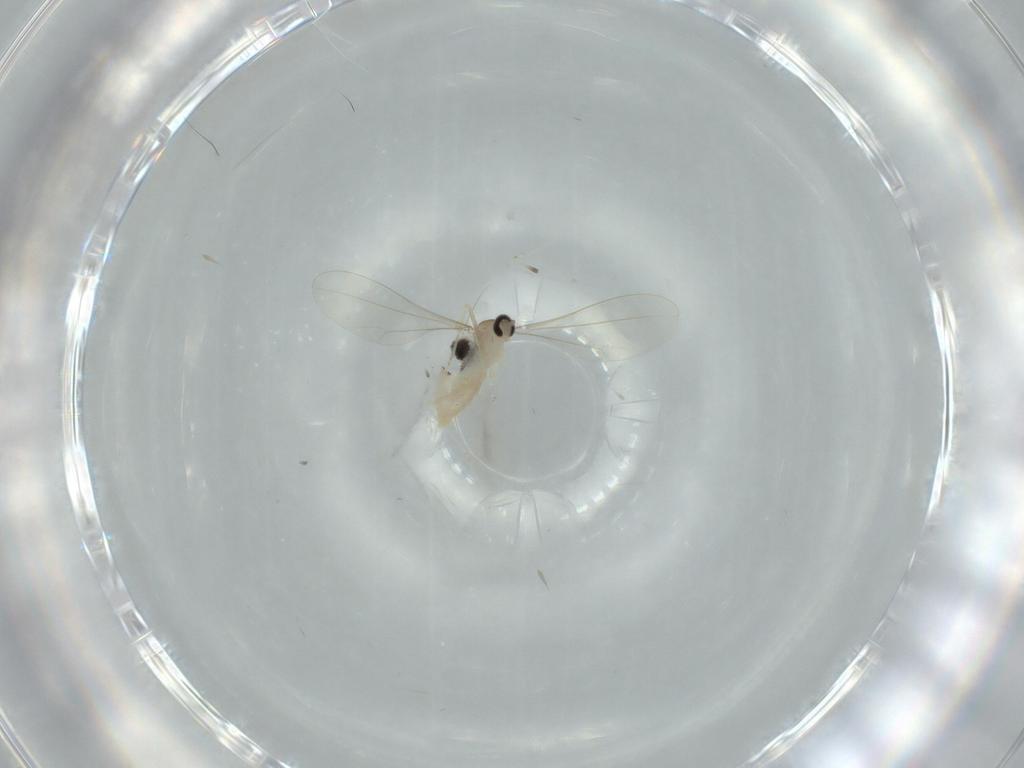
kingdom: Animalia
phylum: Arthropoda
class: Insecta
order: Diptera
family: Cecidomyiidae
